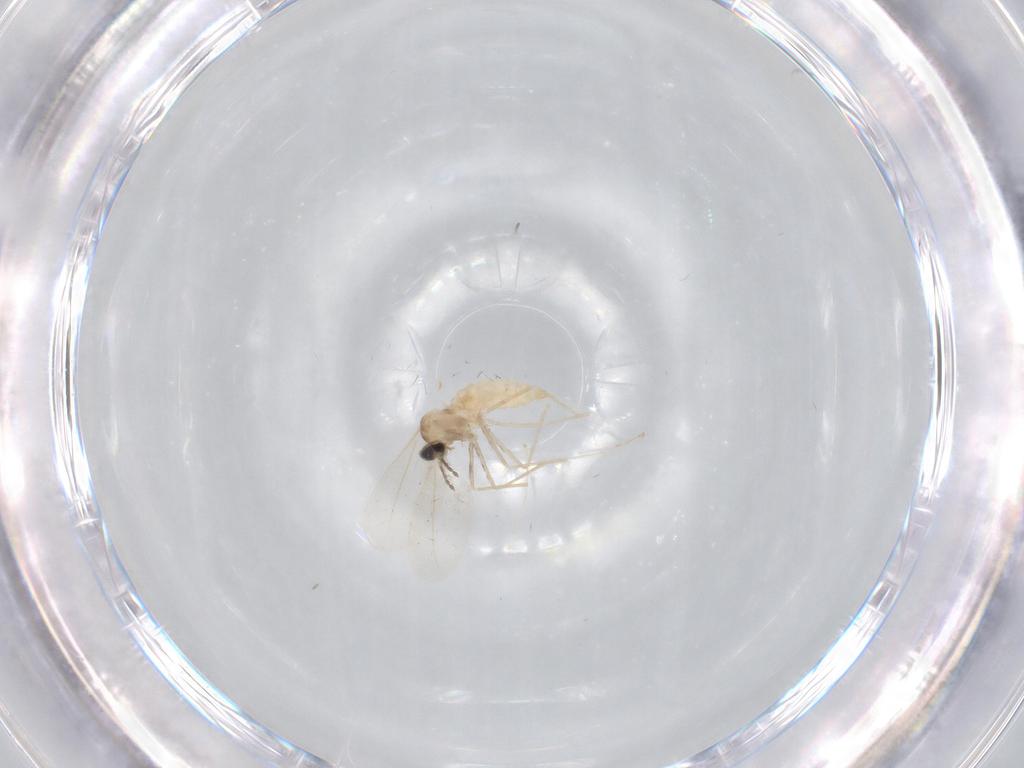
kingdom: Animalia
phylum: Arthropoda
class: Insecta
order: Diptera
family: Cecidomyiidae
